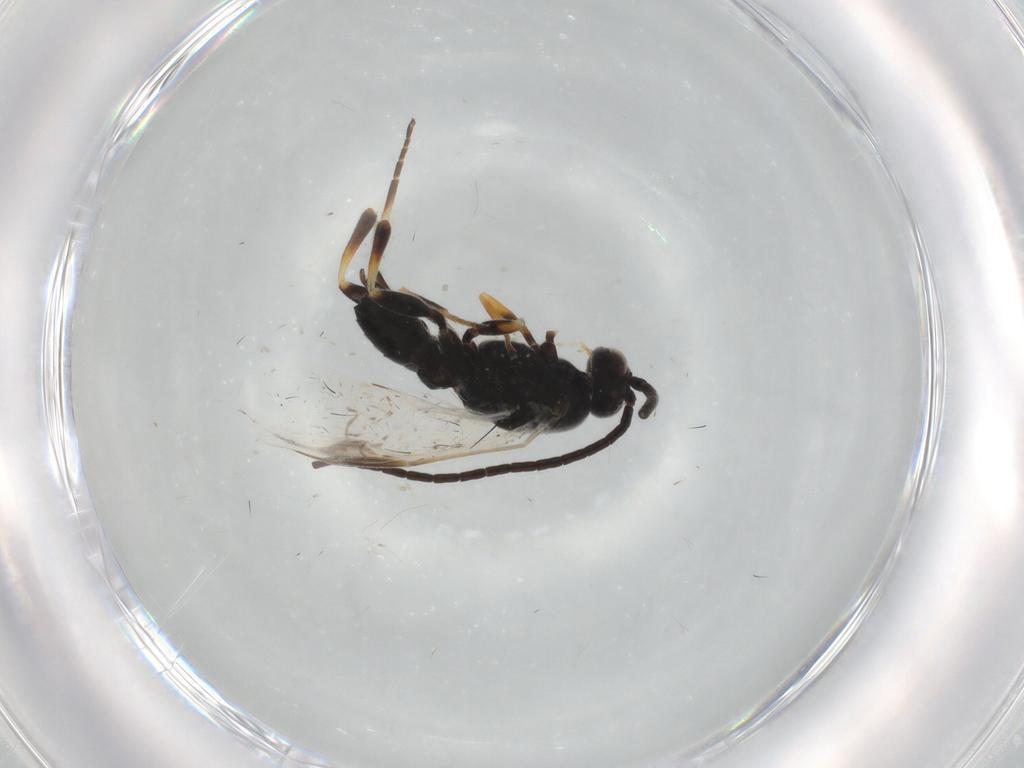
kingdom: Animalia
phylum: Arthropoda
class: Insecta
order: Hymenoptera
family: Braconidae
